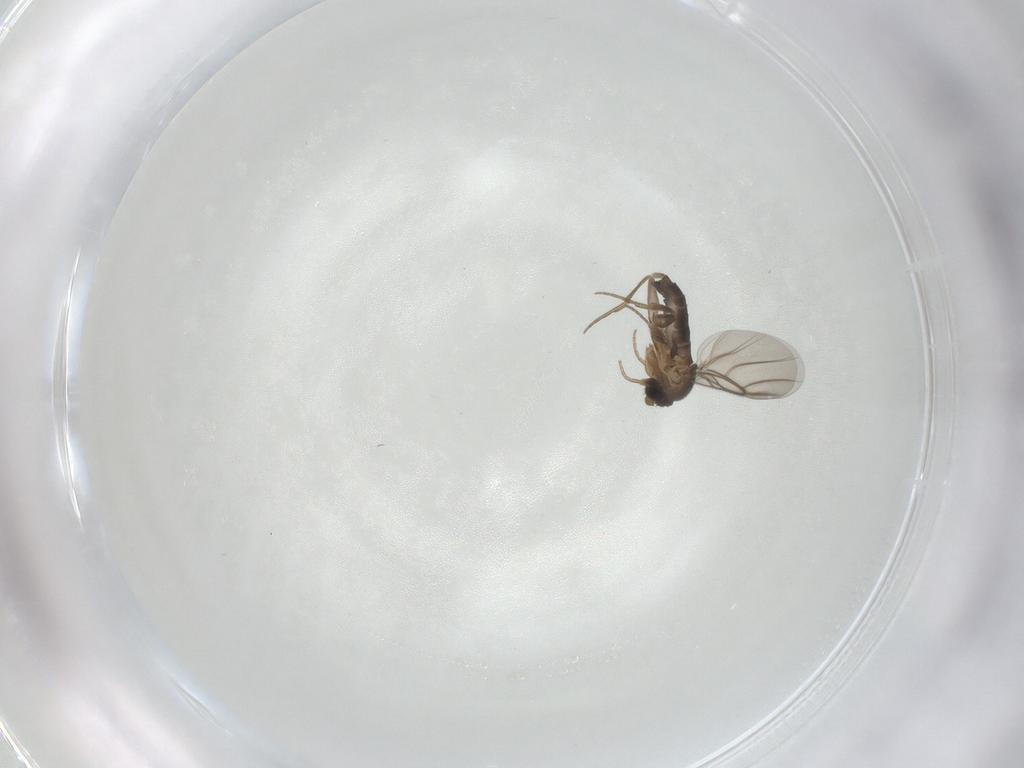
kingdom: Animalia
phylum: Arthropoda
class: Insecta
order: Diptera
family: Phoridae
